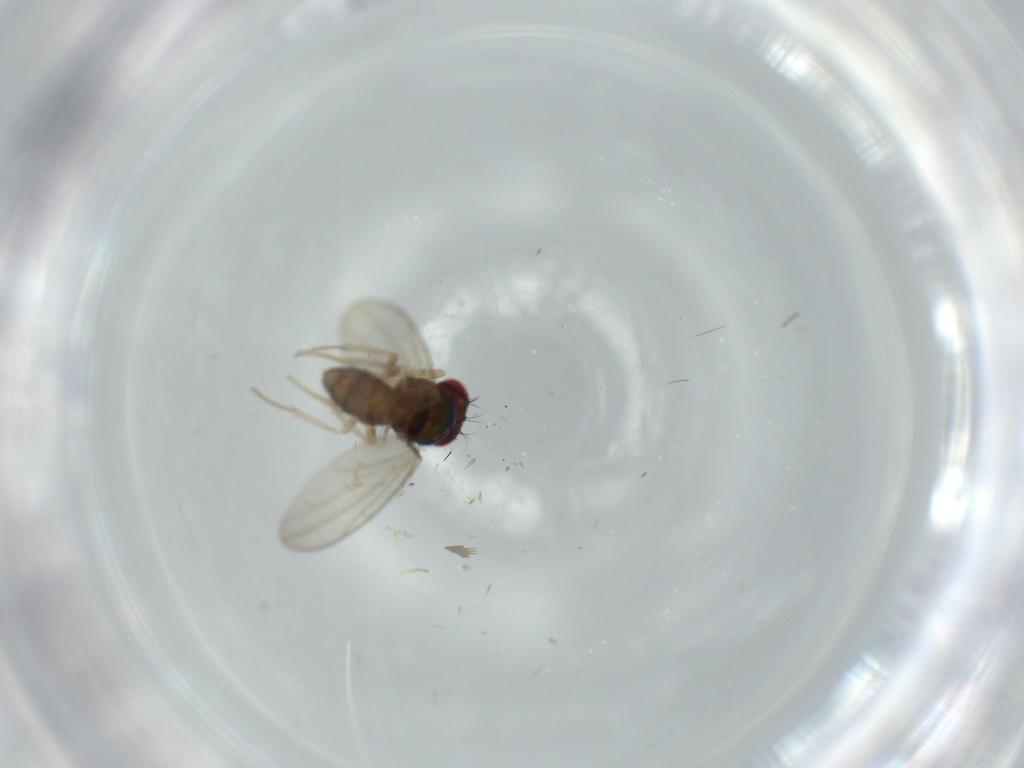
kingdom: Animalia
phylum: Arthropoda
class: Insecta
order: Diptera
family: Drosophilidae
